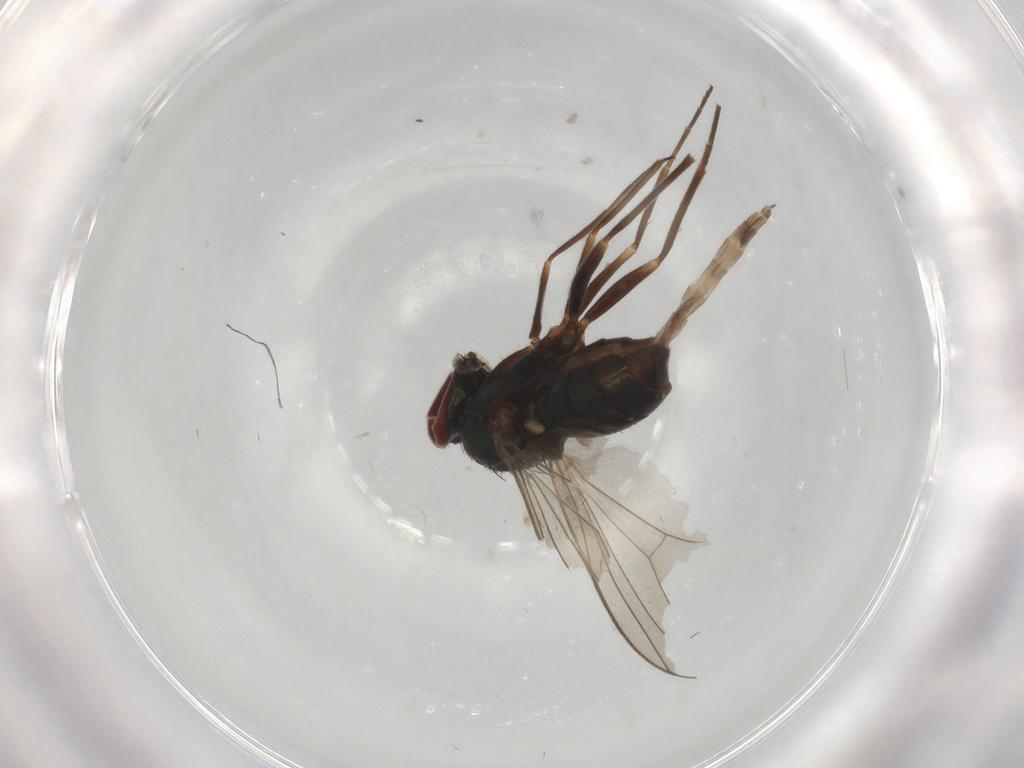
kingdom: Animalia
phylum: Arthropoda
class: Insecta
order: Diptera
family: Dolichopodidae
